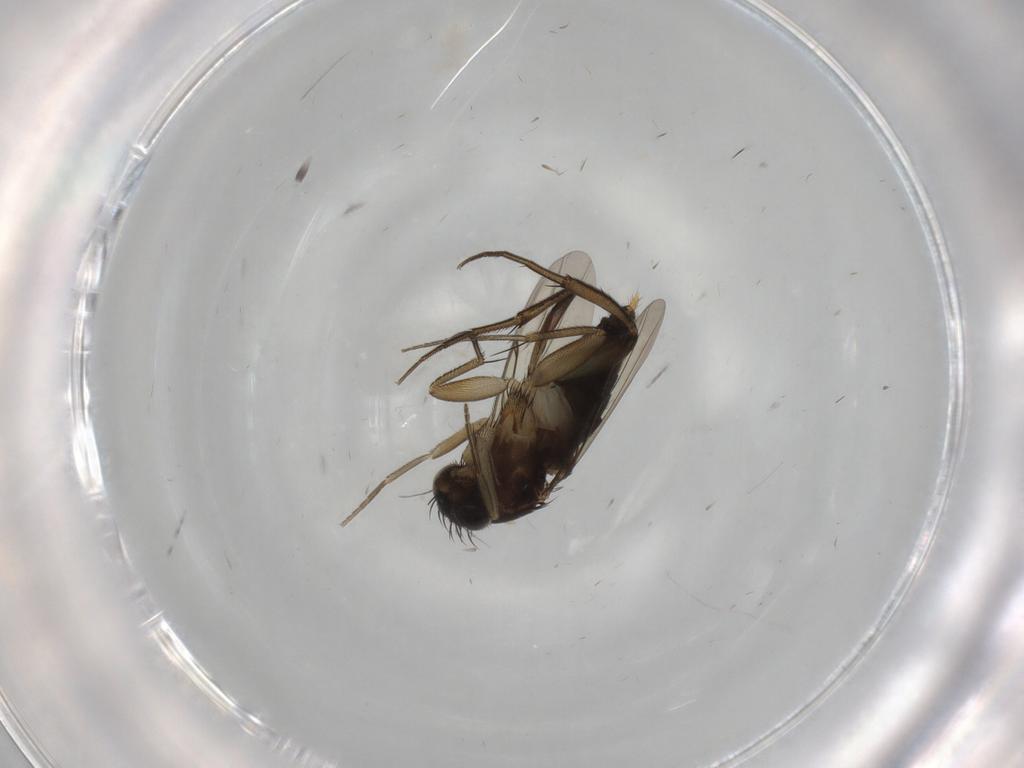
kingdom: Animalia
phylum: Arthropoda
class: Insecta
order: Diptera
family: Phoridae
